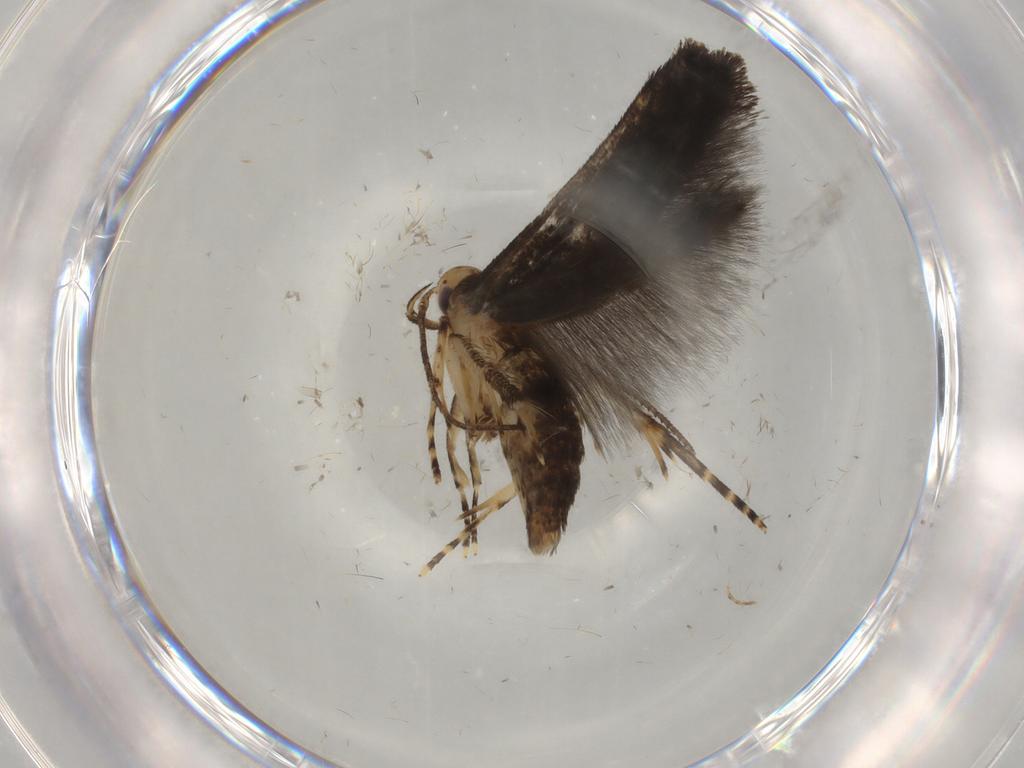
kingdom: Animalia
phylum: Arthropoda
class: Insecta
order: Lepidoptera
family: Cosmopterigidae
